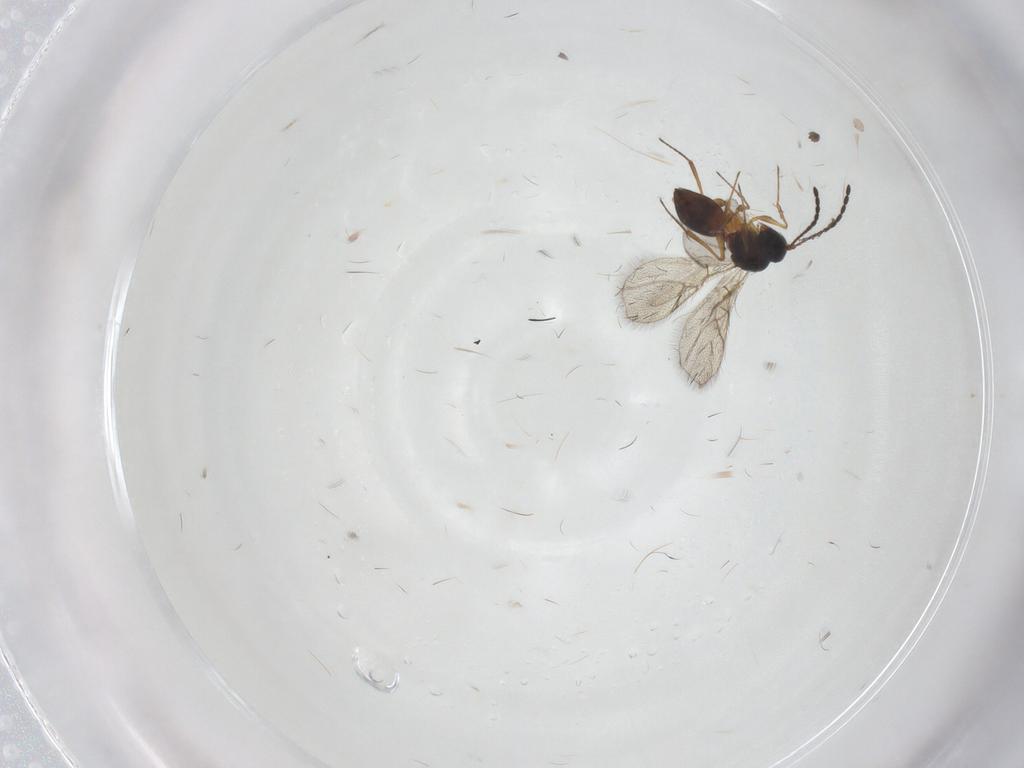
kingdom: Animalia
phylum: Arthropoda
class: Insecta
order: Hymenoptera
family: Figitidae
